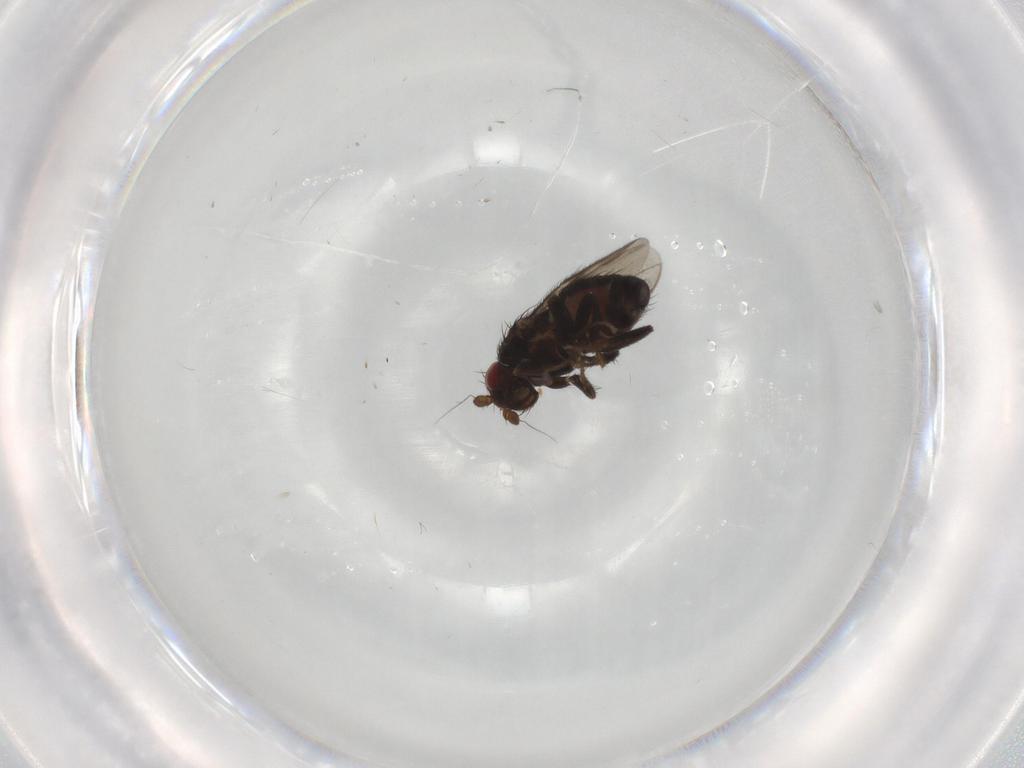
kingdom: Animalia
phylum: Arthropoda
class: Insecta
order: Diptera
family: Sphaeroceridae
